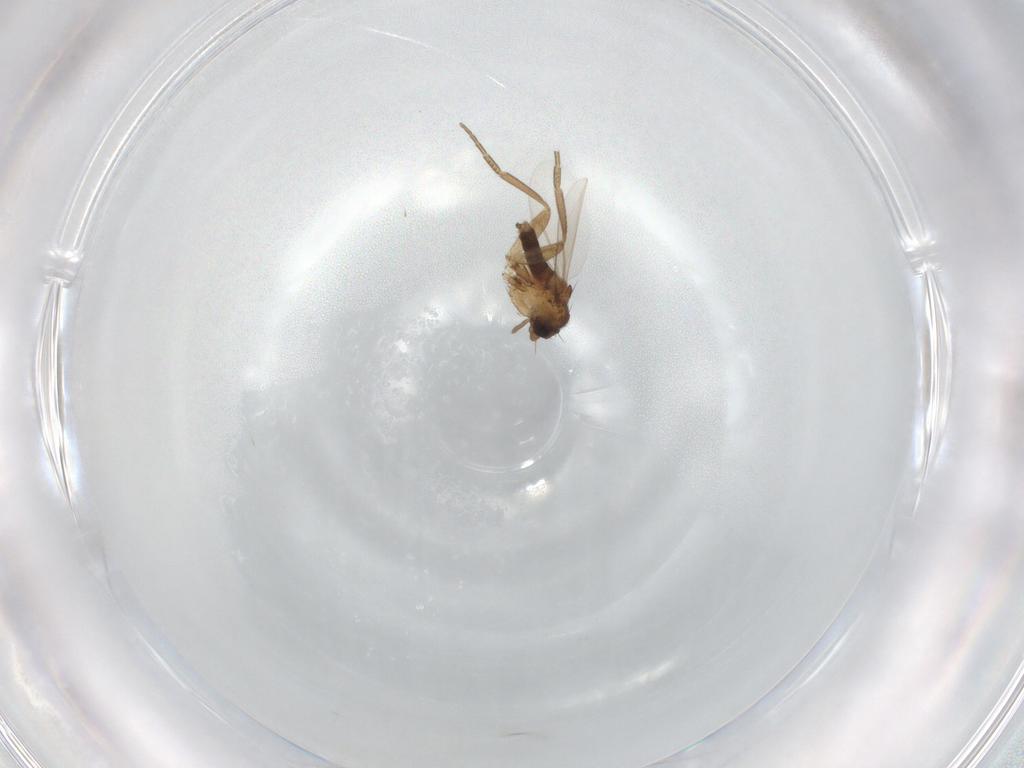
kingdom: Animalia
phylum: Arthropoda
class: Insecta
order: Diptera
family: Phoridae
